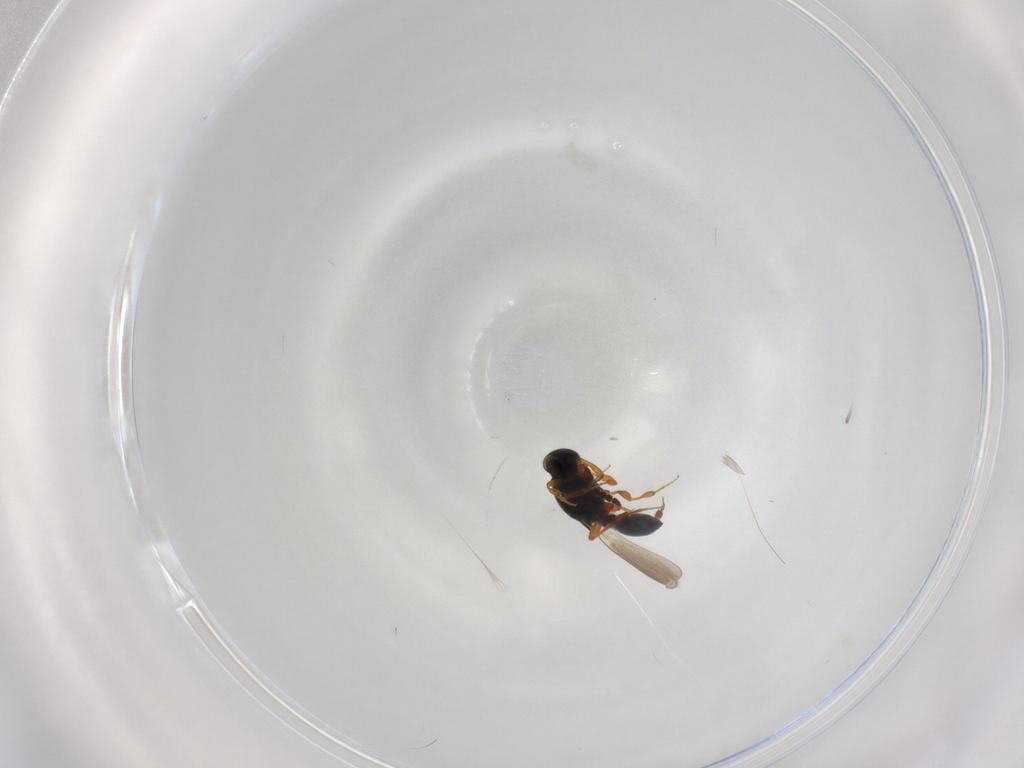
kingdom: Animalia
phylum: Arthropoda
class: Insecta
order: Hymenoptera
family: Platygastridae
